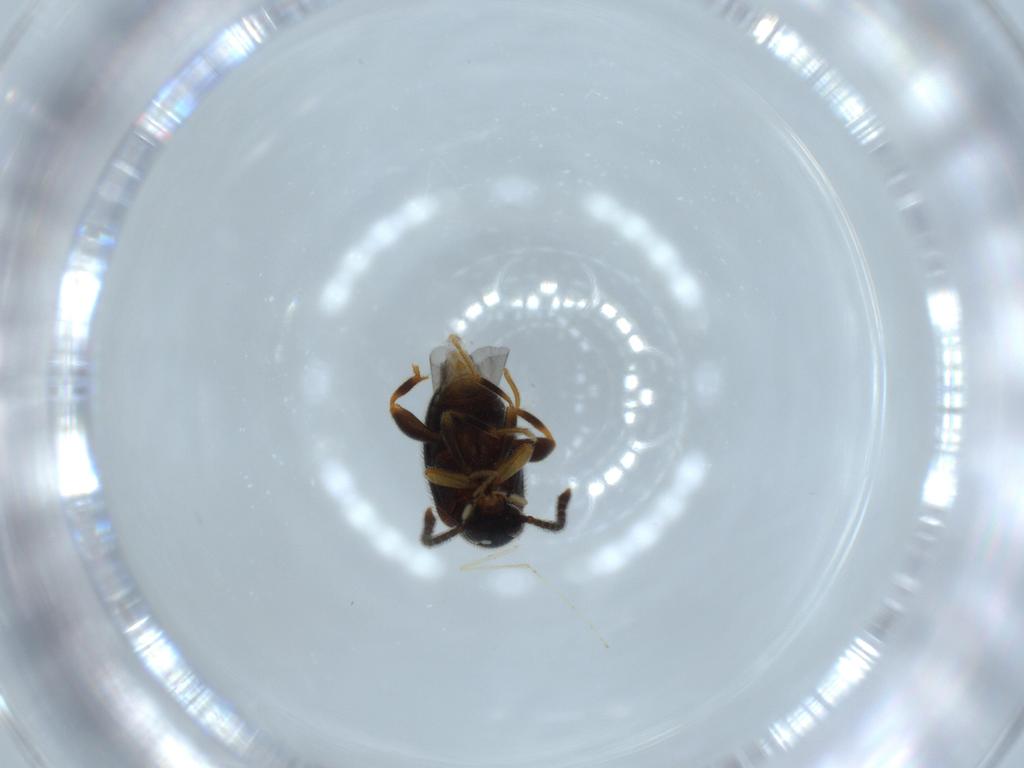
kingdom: Animalia
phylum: Arthropoda
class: Insecta
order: Coleoptera
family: Aderidae
